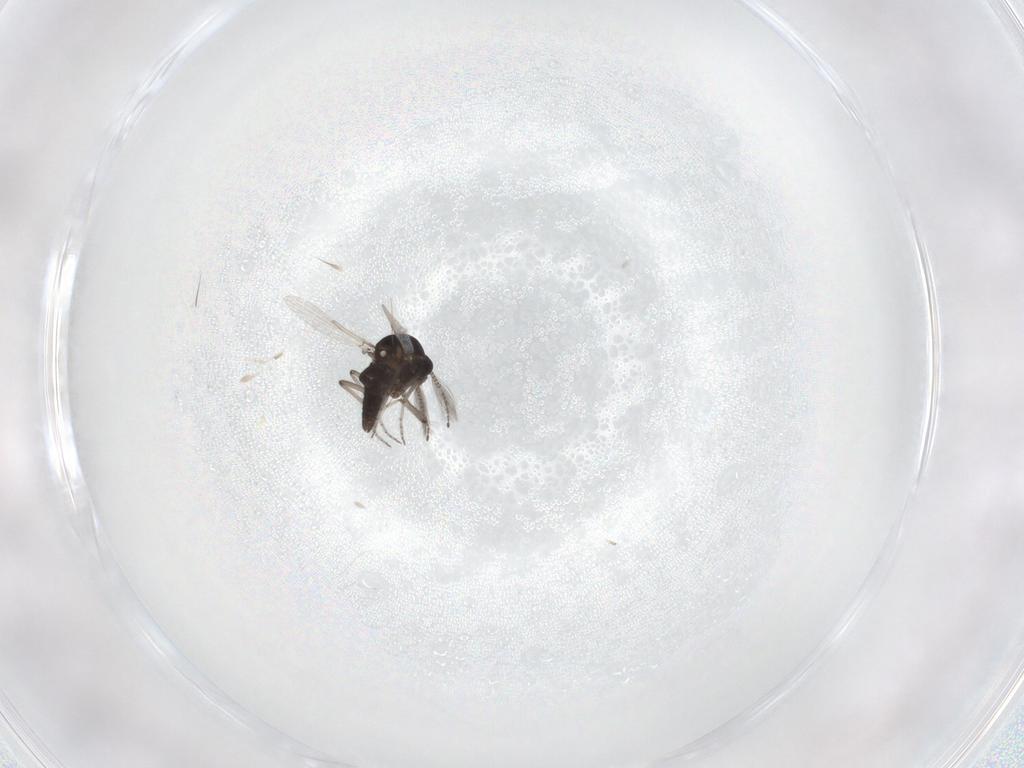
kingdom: Animalia
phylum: Arthropoda
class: Insecta
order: Diptera
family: Ceratopogonidae
